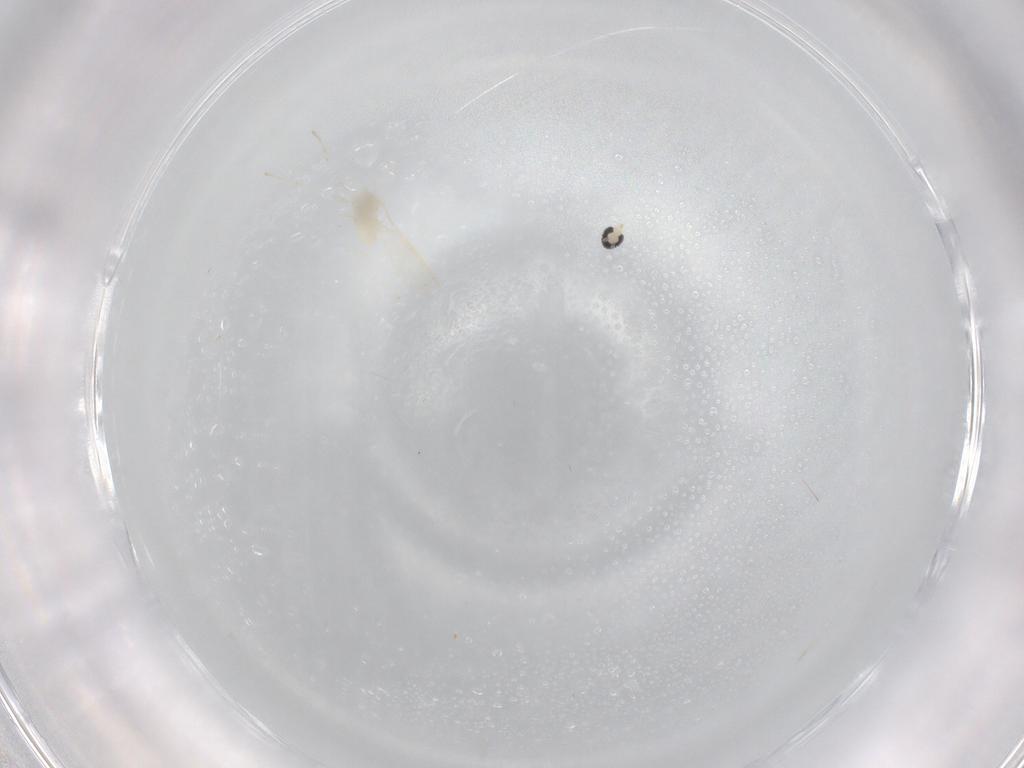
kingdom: Animalia
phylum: Arthropoda
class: Insecta
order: Diptera
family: Cecidomyiidae
